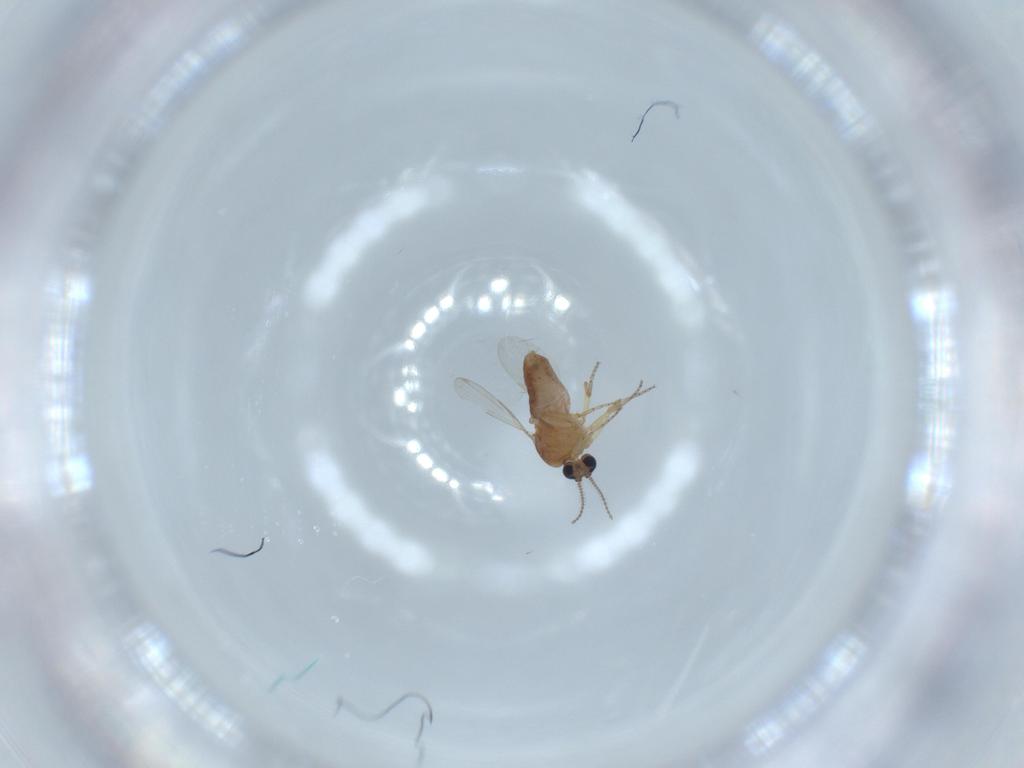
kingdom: Animalia
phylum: Arthropoda
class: Insecta
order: Diptera
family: Ceratopogonidae
